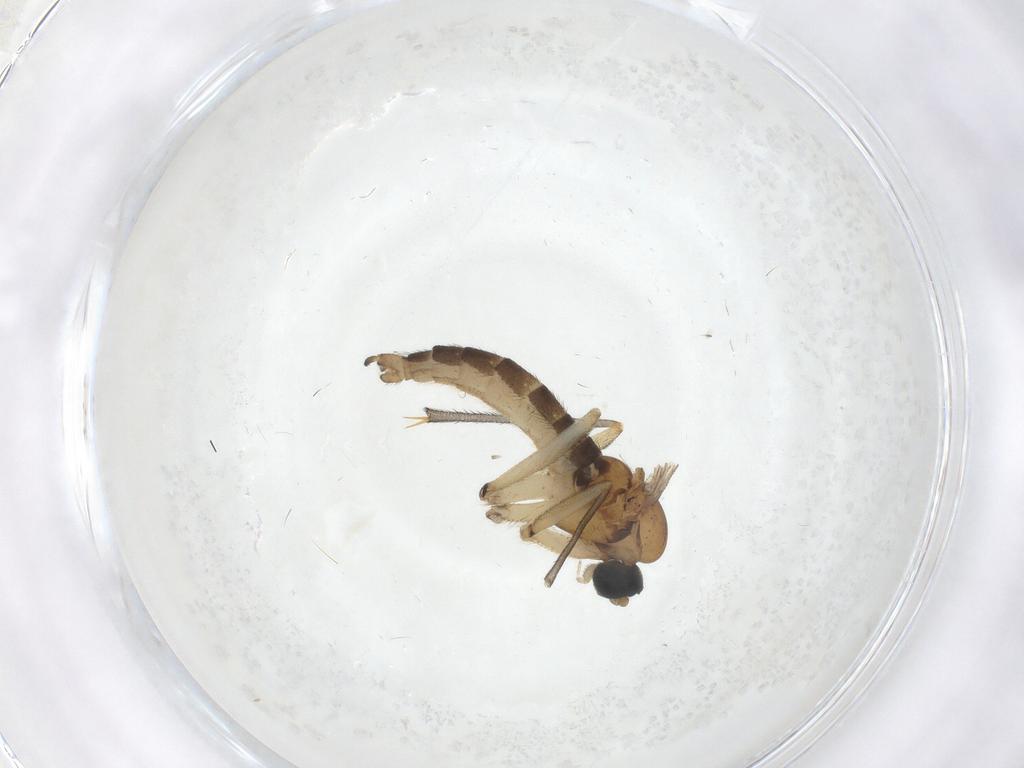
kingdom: Animalia
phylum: Arthropoda
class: Insecta
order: Diptera
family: Sciaridae
